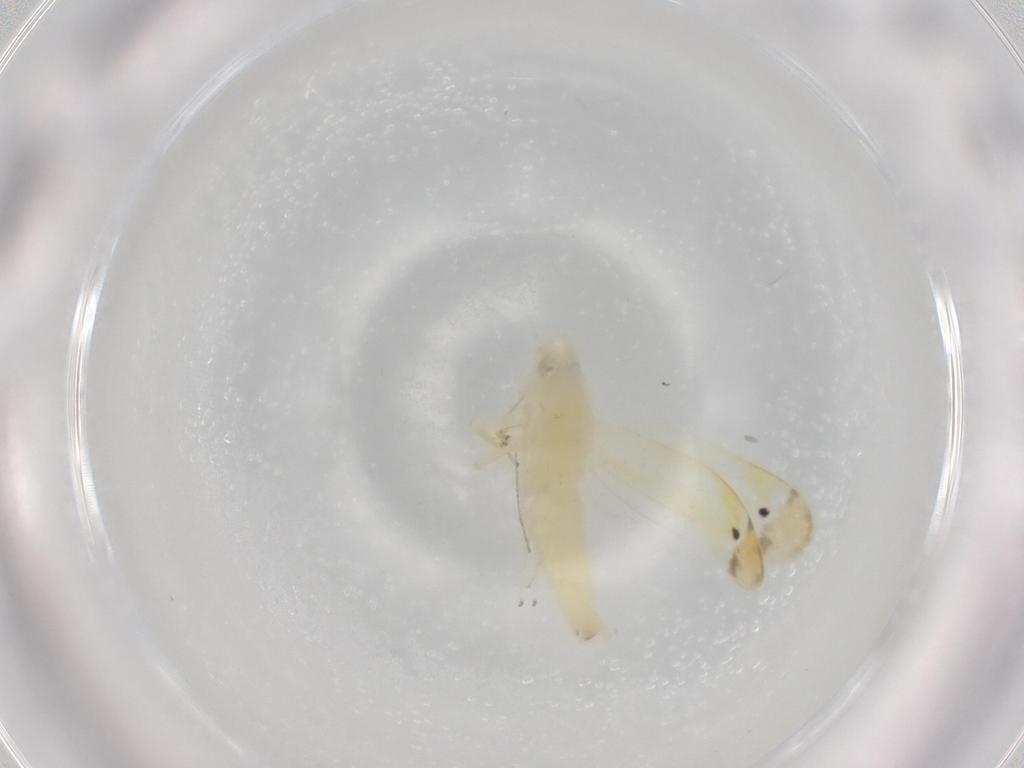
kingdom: Animalia
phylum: Arthropoda
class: Insecta
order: Hemiptera
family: Cicadellidae
